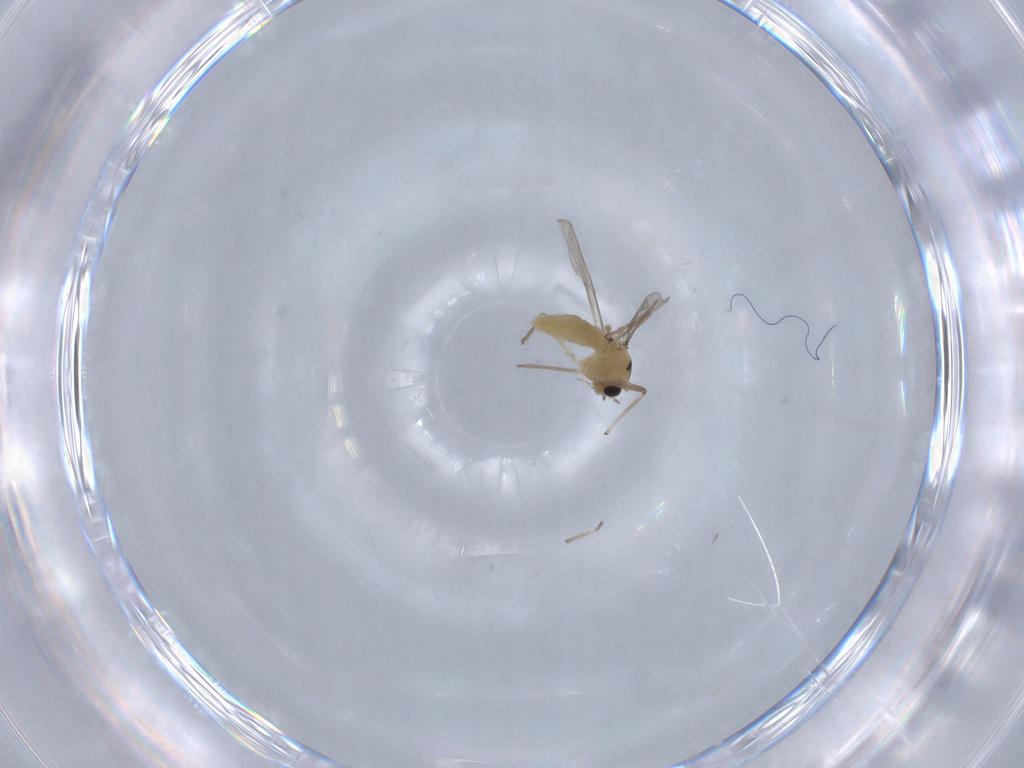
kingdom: Animalia
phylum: Arthropoda
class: Insecta
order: Diptera
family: Chironomidae
